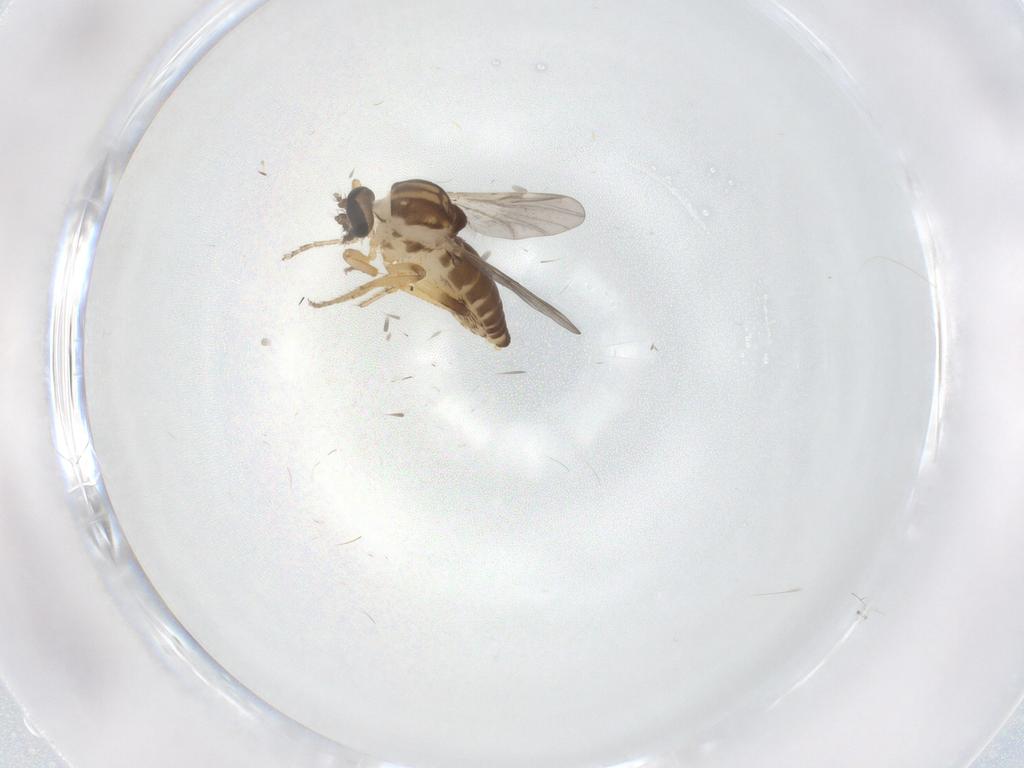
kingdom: Animalia
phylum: Arthropoda
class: Insecta
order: Diptera
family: Ceratopogonidae
